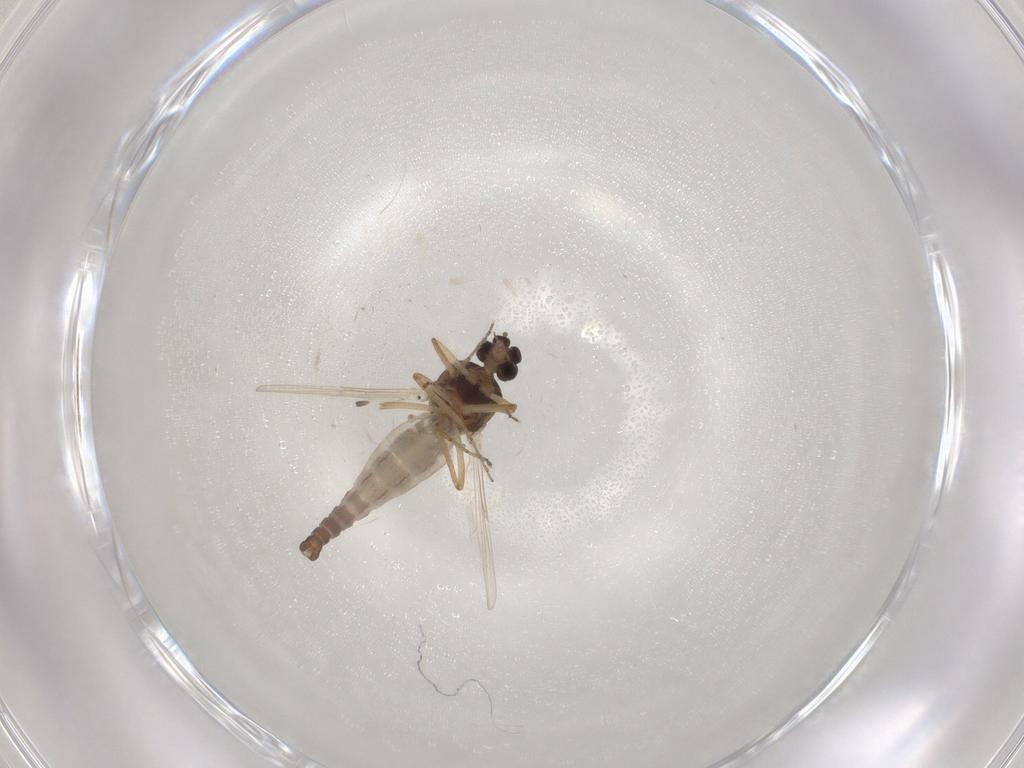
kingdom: Animalia
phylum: Arthropoda
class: Insecta
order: Diptera
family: Ceratopogonidae
